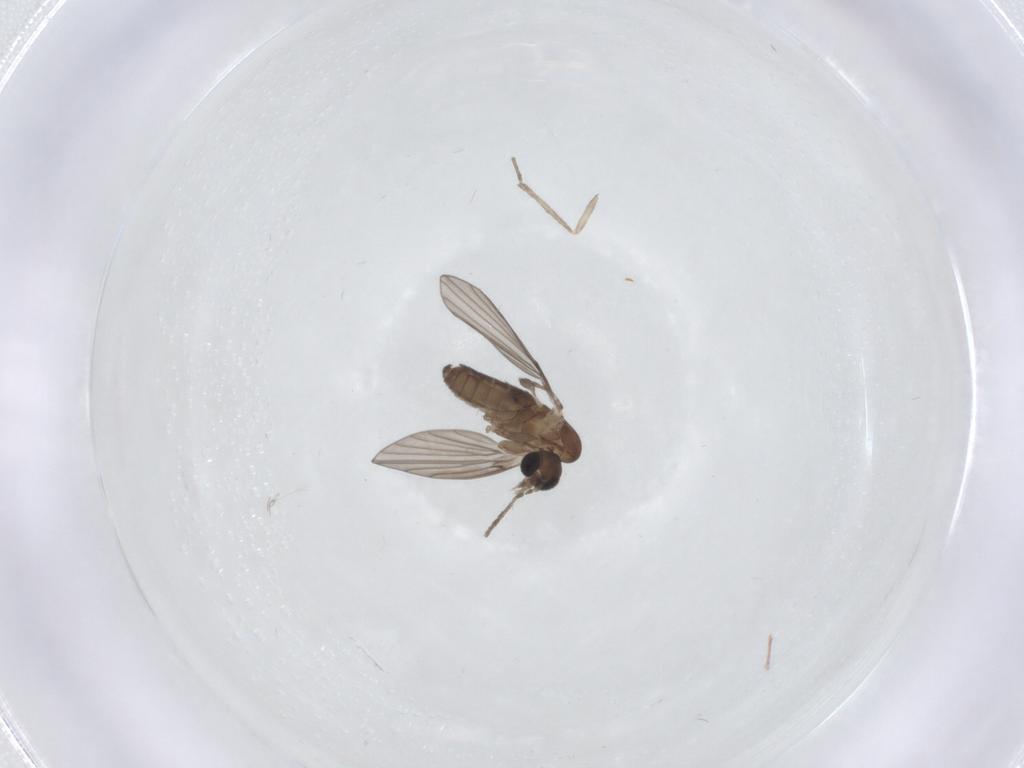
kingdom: Animalia
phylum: Arthropoda
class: Insecta
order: Diptera
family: Psychodidae
